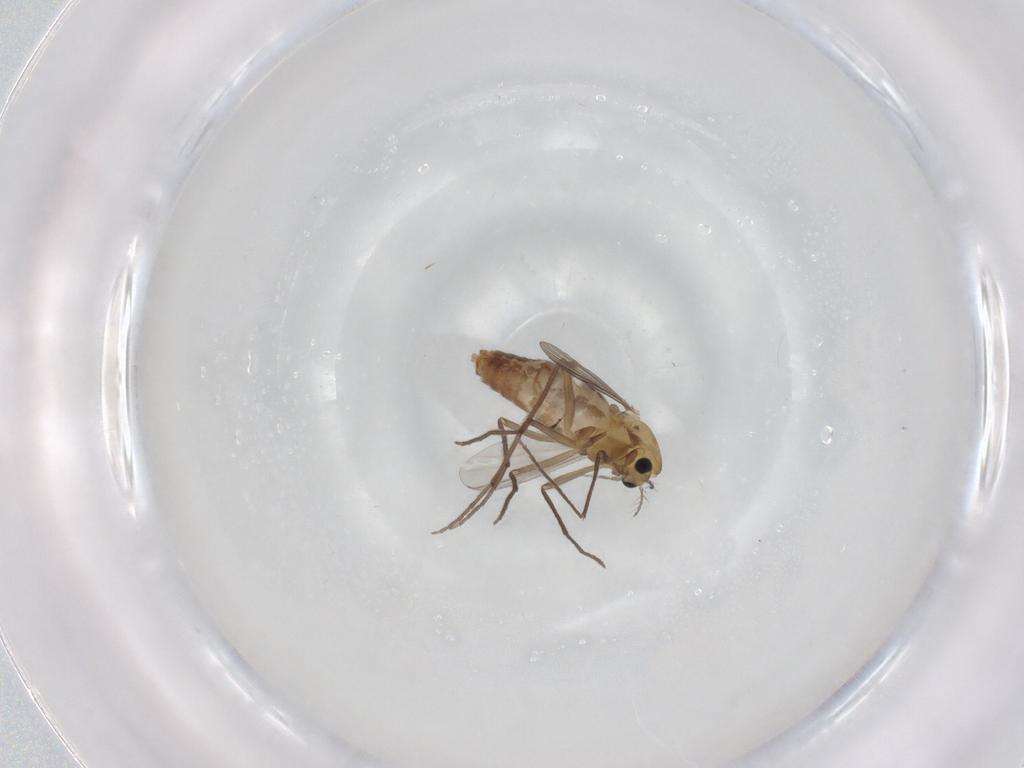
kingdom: Animalia
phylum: Arthropoda
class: Insecta
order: Diptera
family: Chironomidae
